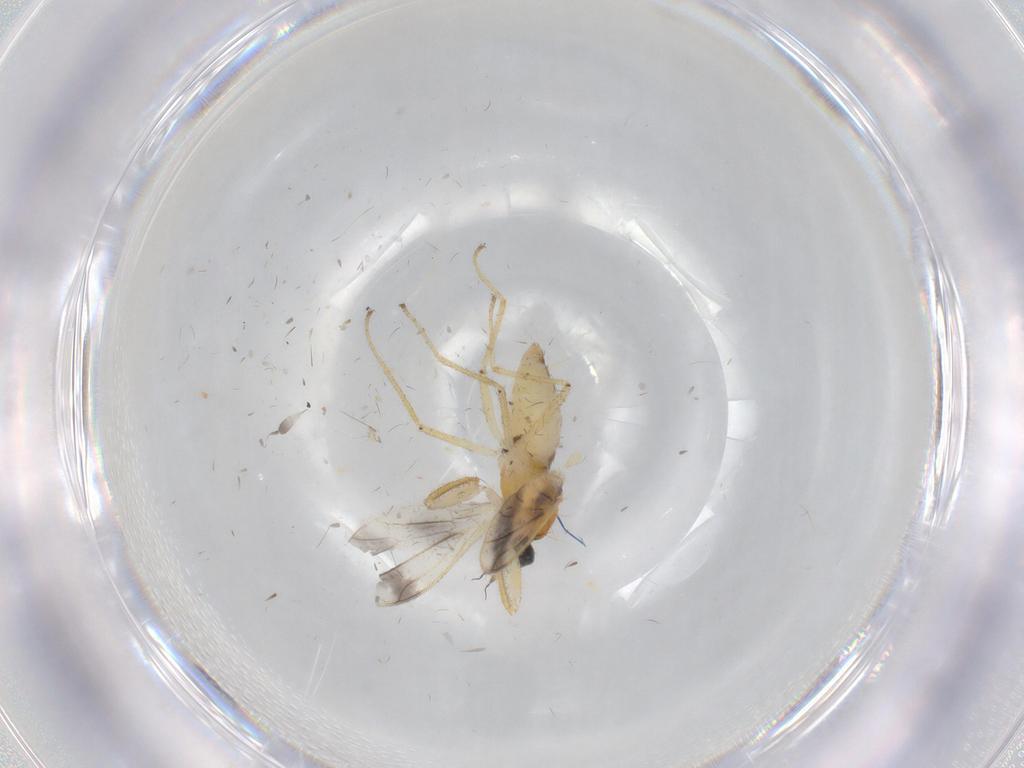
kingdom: Animalia
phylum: Arthropoda
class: Insecta
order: Diptera
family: Empididae
